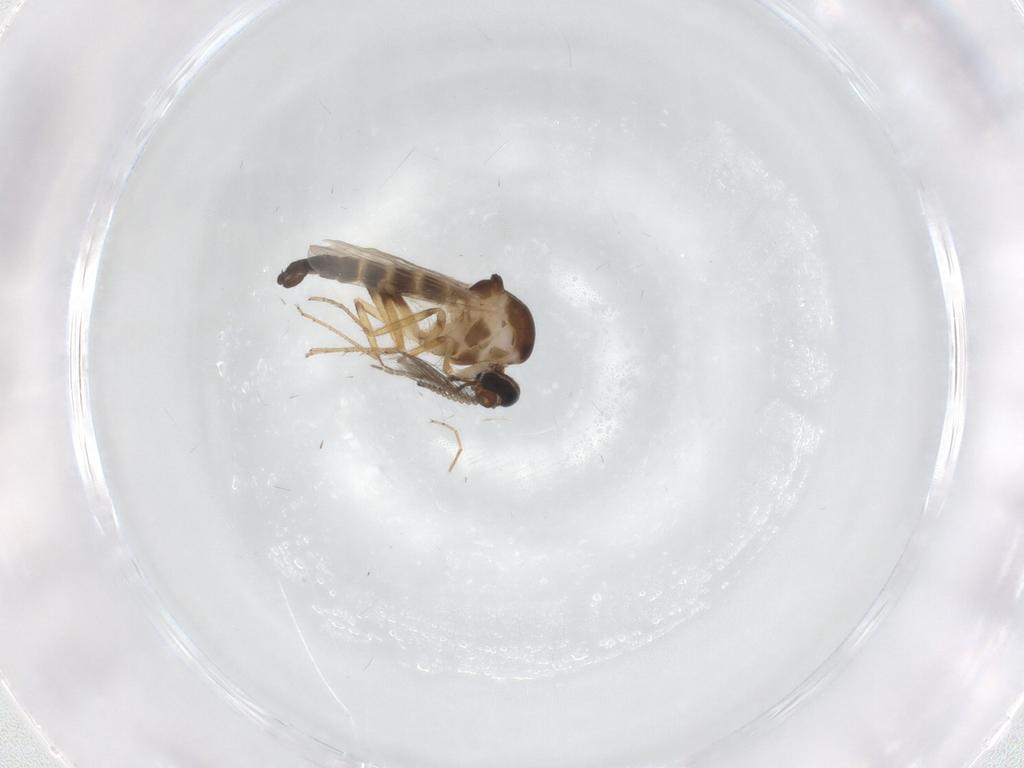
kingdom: Animalia
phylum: Arthropoda
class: Insecta
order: Diptera
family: Ceratopogonidae
